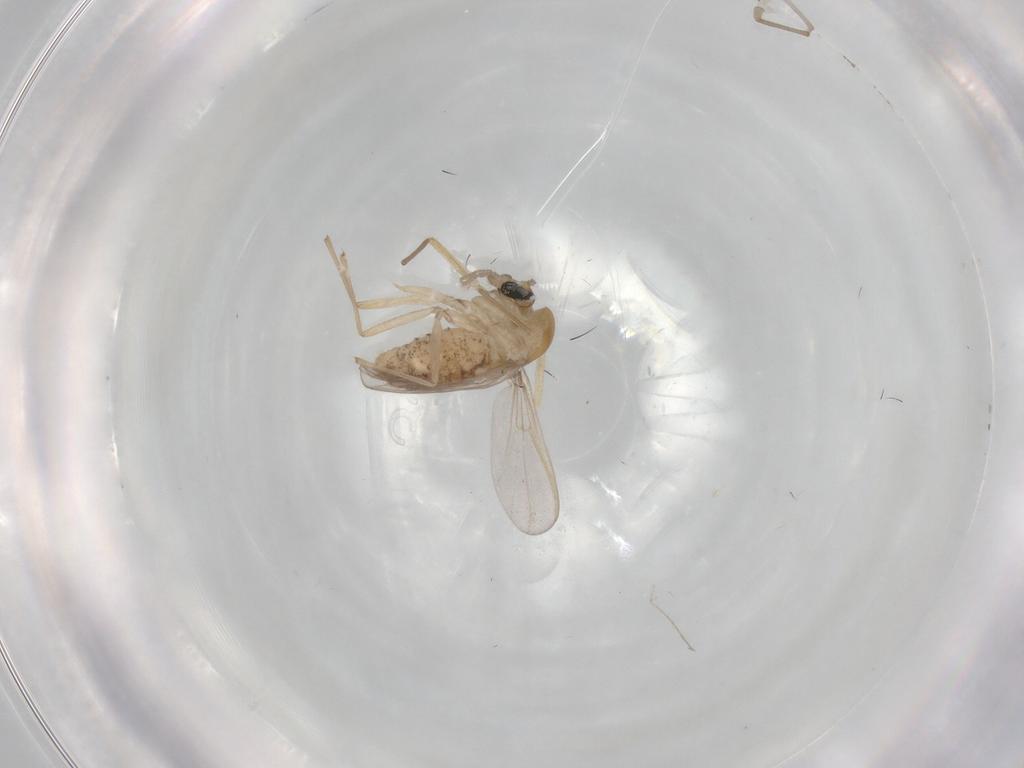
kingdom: Animalia
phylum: Arthropoda
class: Insecta
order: Diptera
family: Chironomidae
